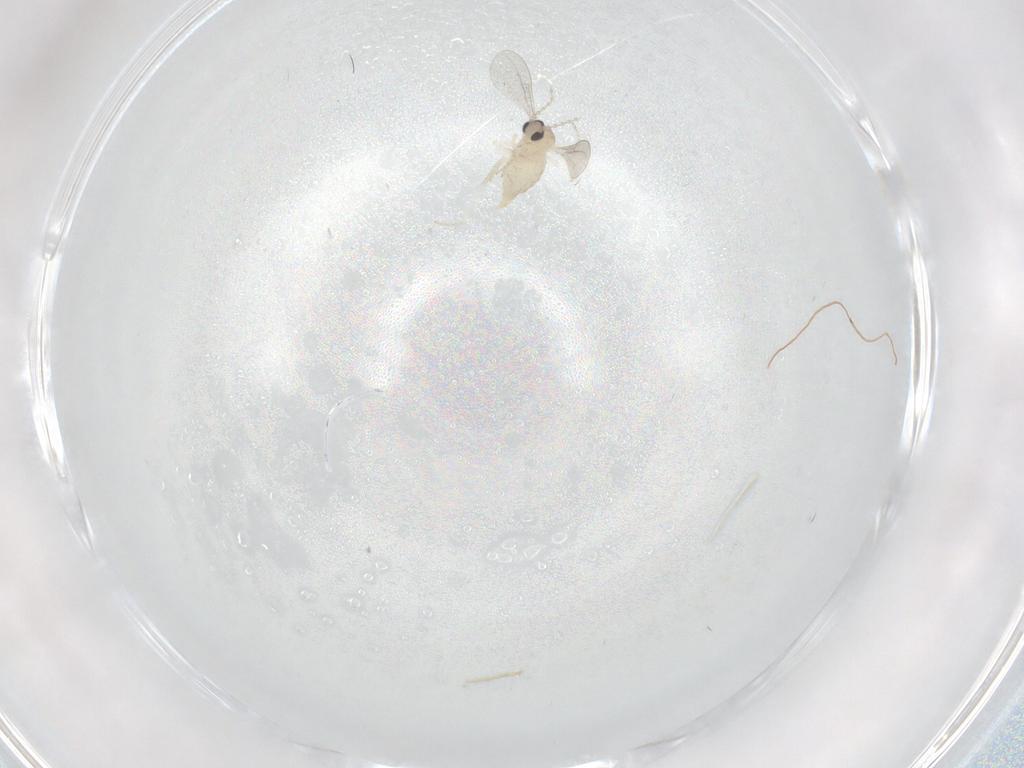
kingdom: Animalia
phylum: Arthropoda
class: Insecta
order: Diptera
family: Cecidomyiidae
